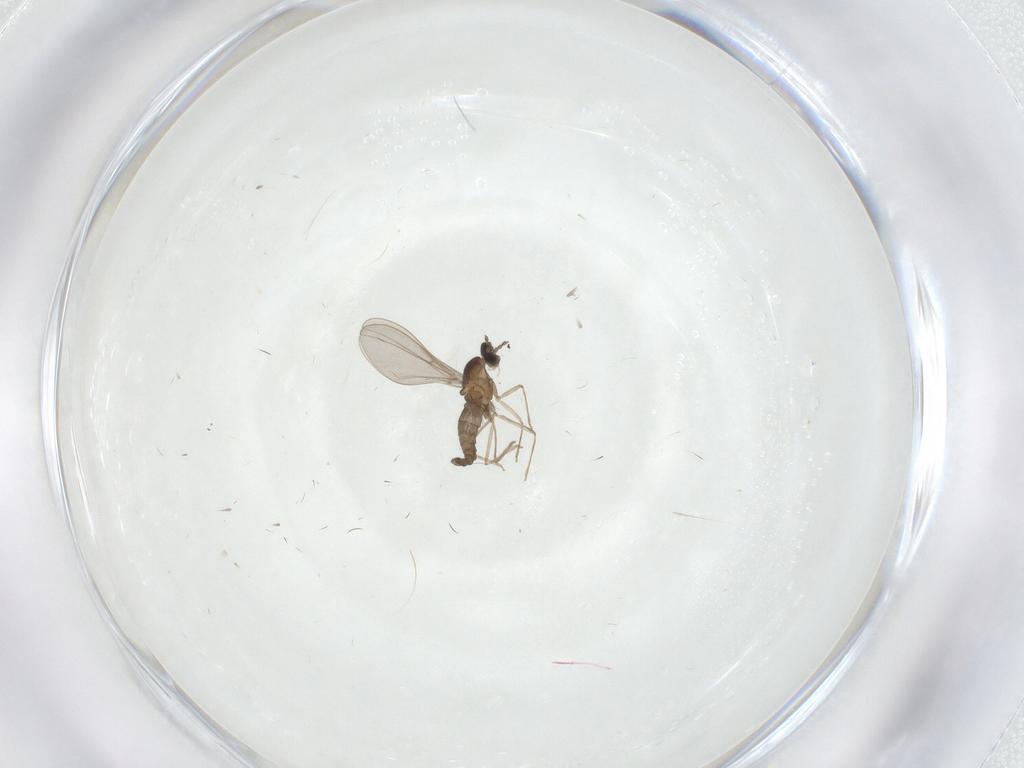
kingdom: Animalia
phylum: Arthropoda
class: Insecta
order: Diptera
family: Cecidomyiidae
